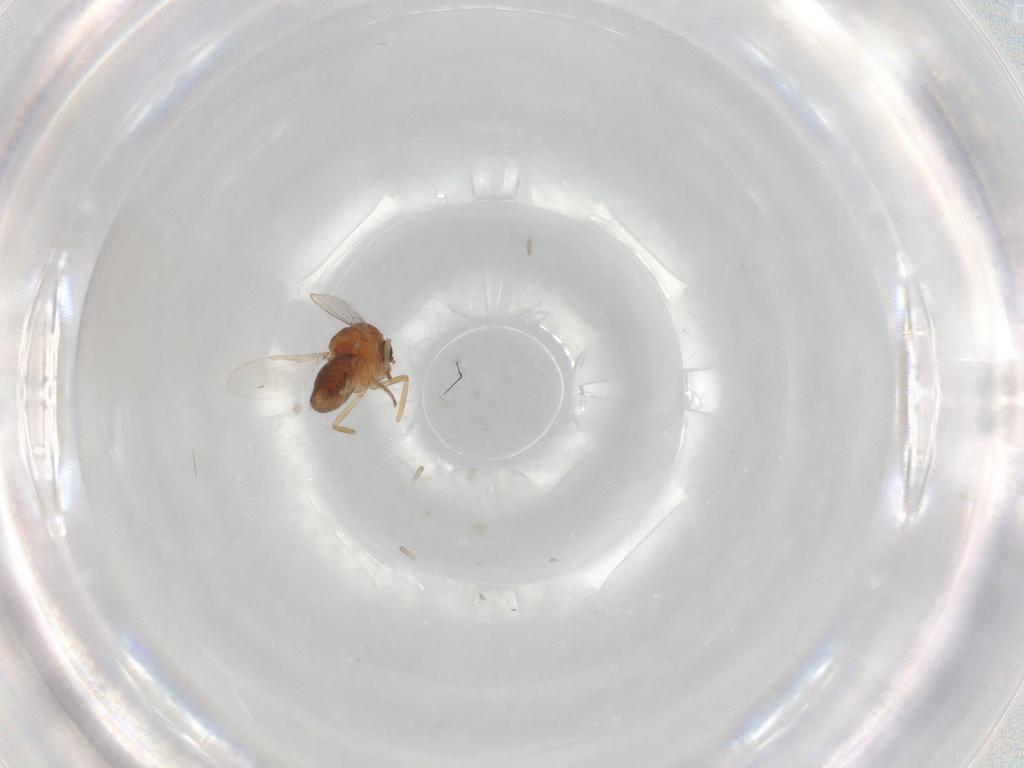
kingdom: Animalia
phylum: Arthropoda
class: Insecta
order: Diptera
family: Ceratopogonidae
